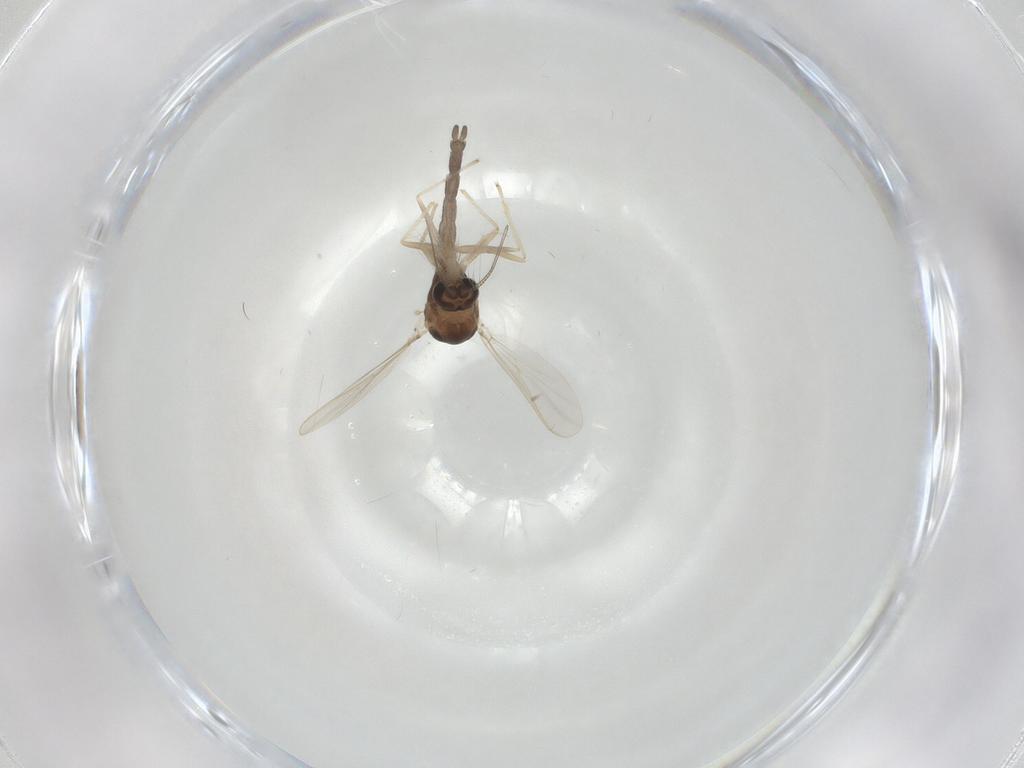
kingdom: Animalia
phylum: Arthropoda
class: Insecta
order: Diptera
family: Chironomidae
